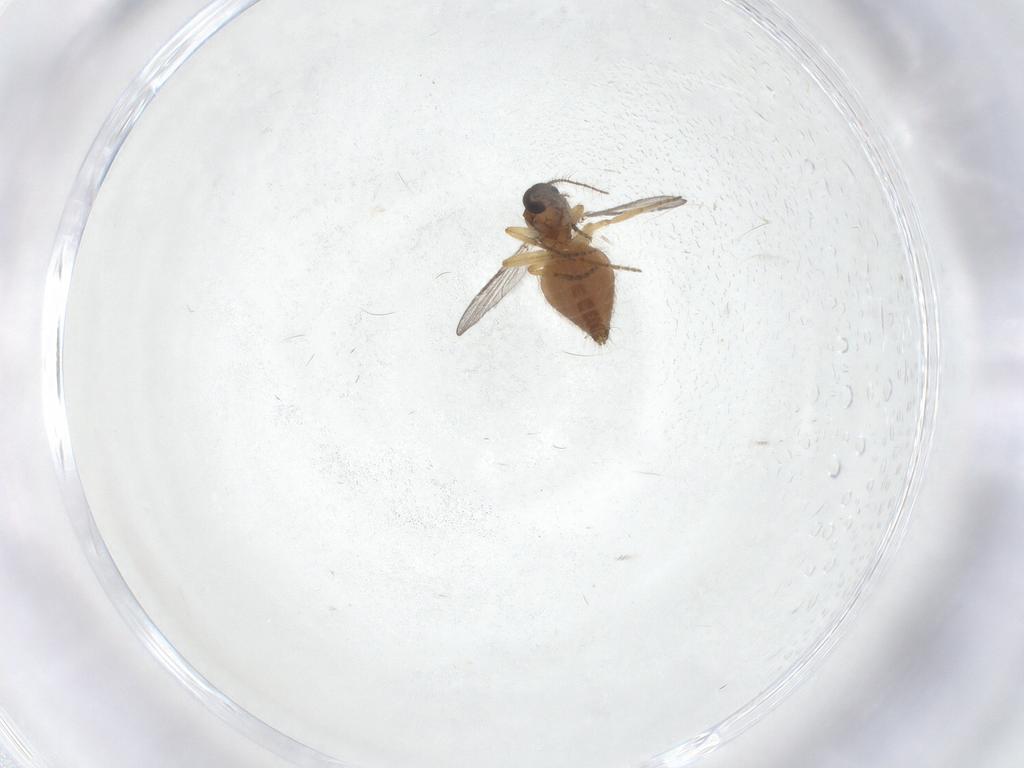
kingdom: Animalia
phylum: Arthropoda
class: Insecta
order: Diptera
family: Ceratopogonidae
